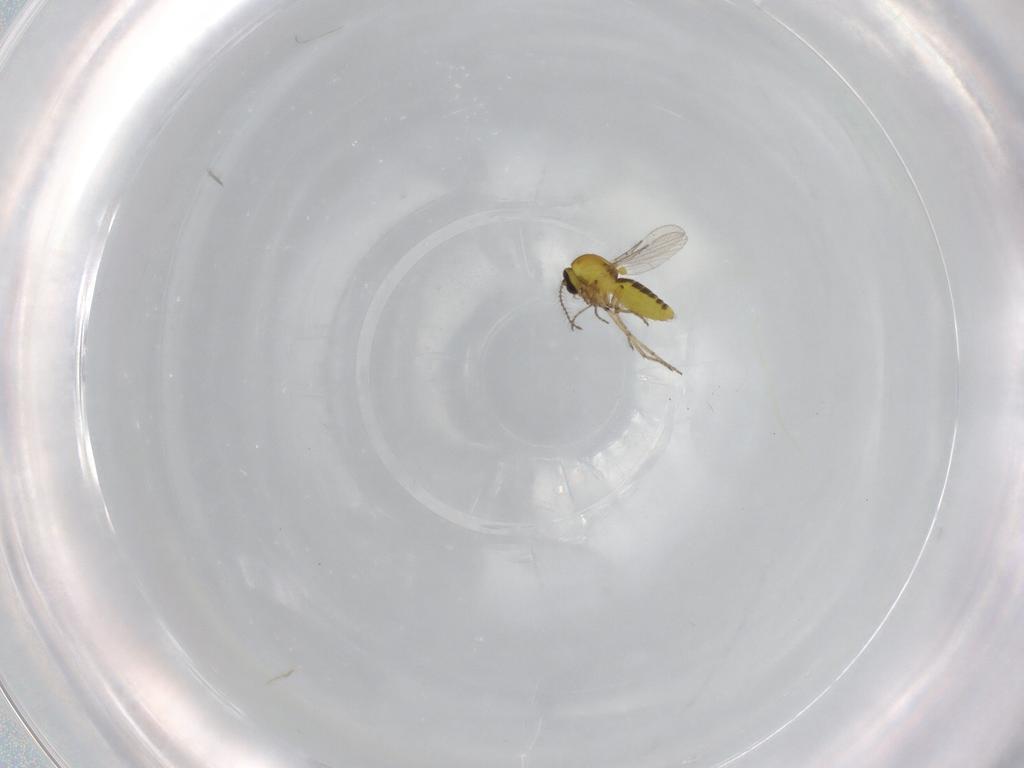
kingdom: Animalia
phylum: Arthropoda
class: Insecta
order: Diptera
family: Ceratopogonidae
